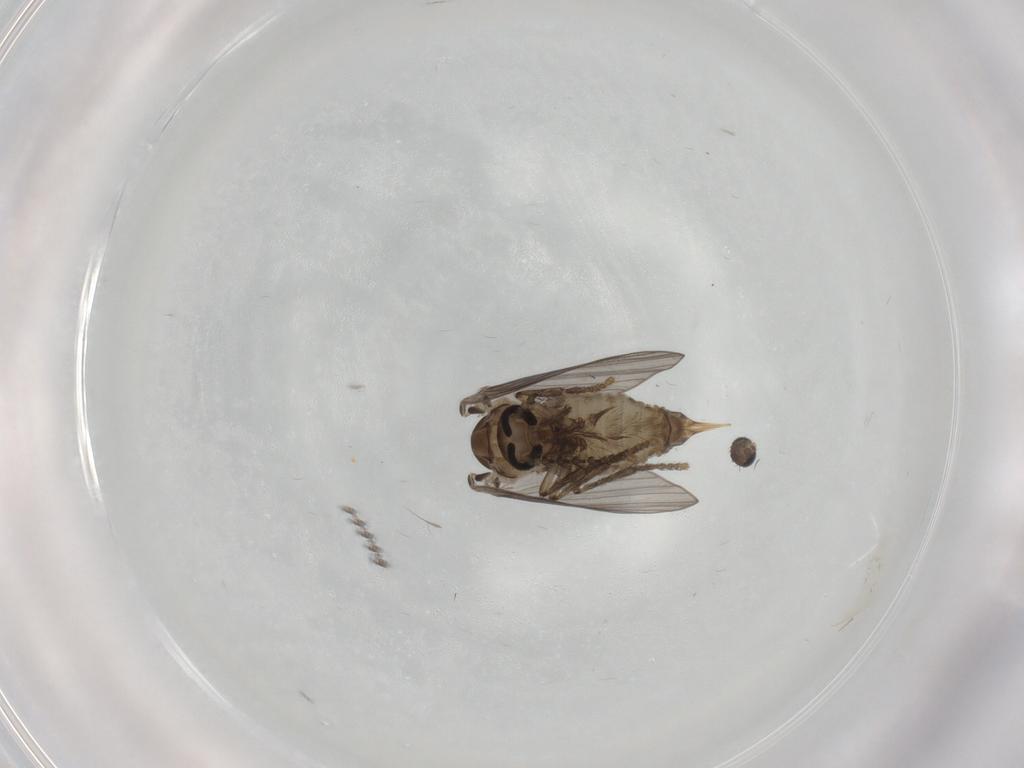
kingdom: Animalia
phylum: Arthropoda
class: Insecta
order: Diptera
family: Psychodidae
